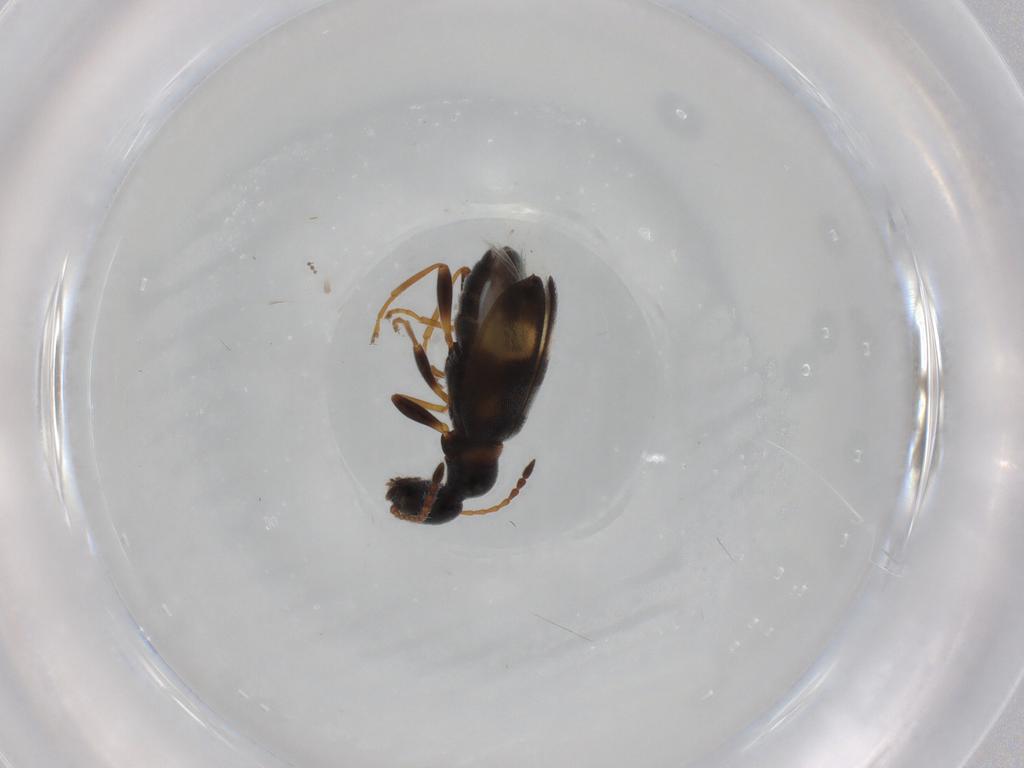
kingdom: Animalia
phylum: Arthropoda
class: Insecta
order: Coleoptera
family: Anthicidae
